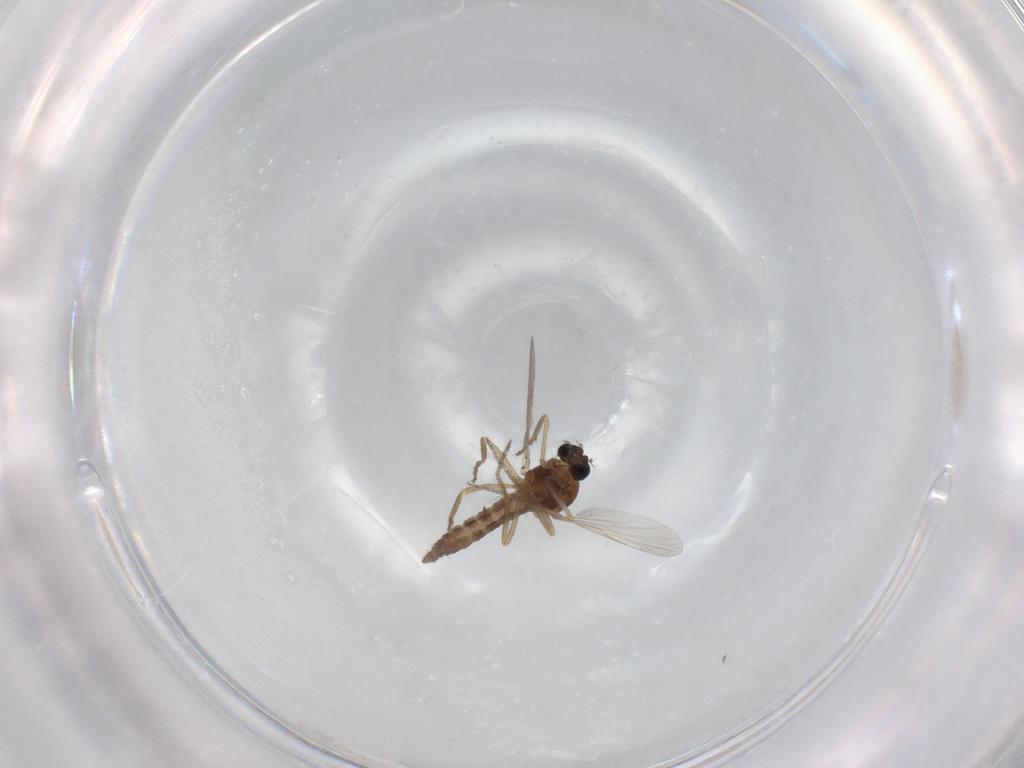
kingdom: Animalia
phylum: Arthropoda
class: Insecta
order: Diptera
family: Ceratopogonidae
